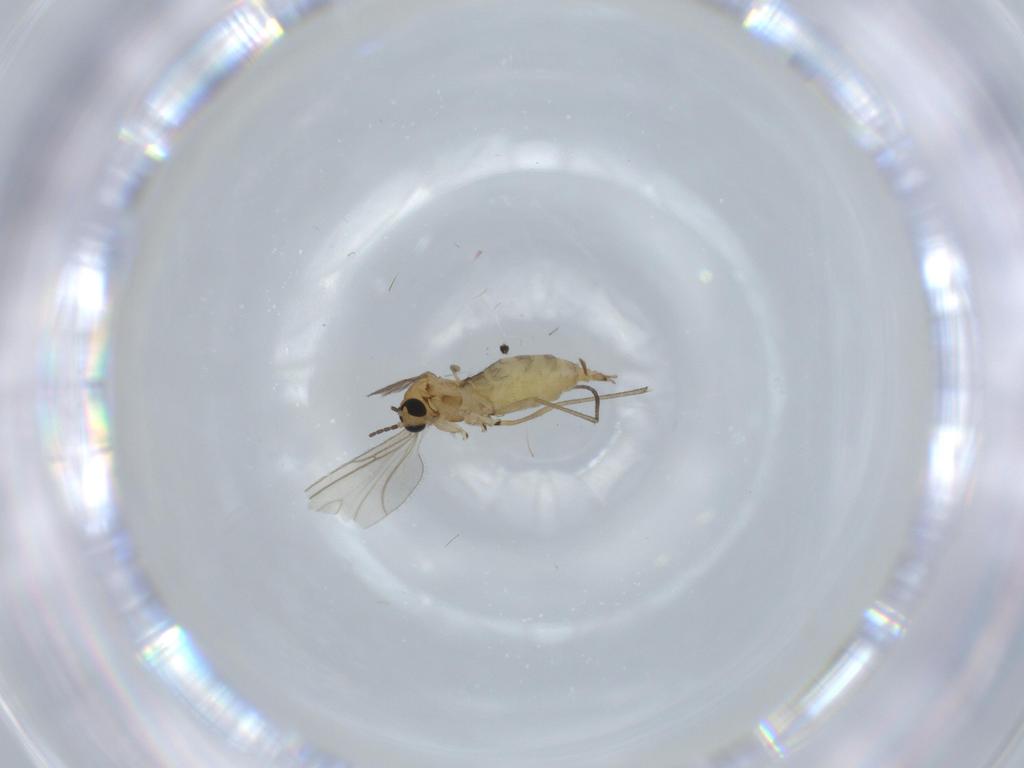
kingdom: Animalia
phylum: Arthropoda
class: Insecta
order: Diptera
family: Sciaridae
